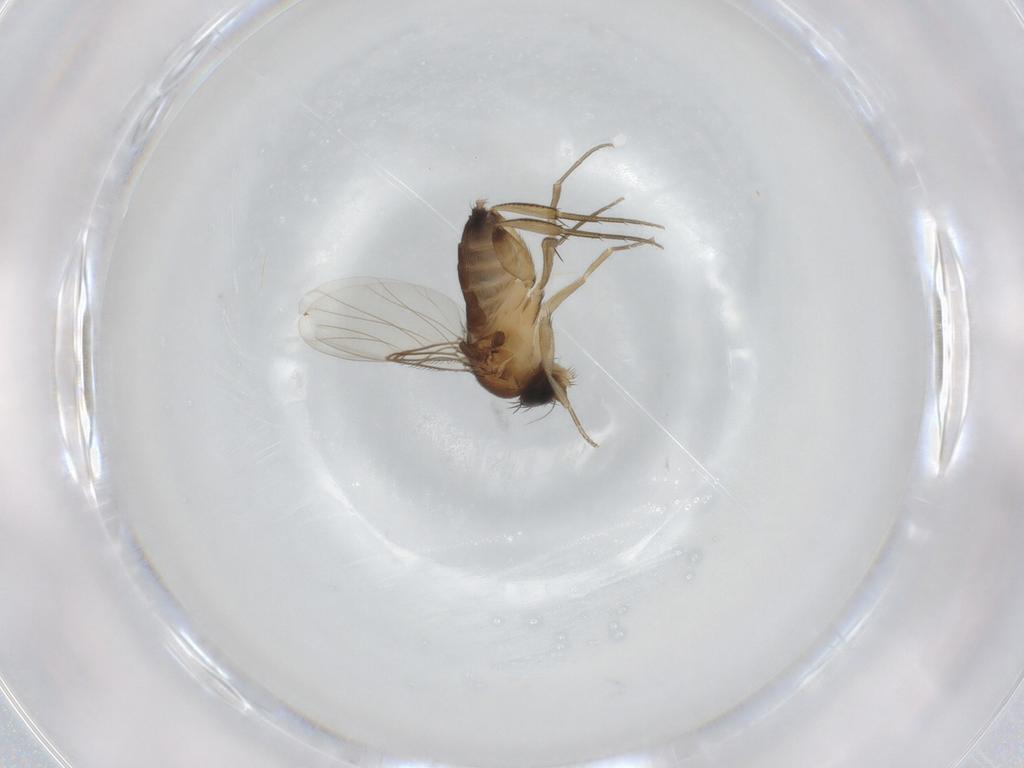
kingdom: Animalia
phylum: Arthropoda
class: Insecta
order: Diptera
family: Phoridae
